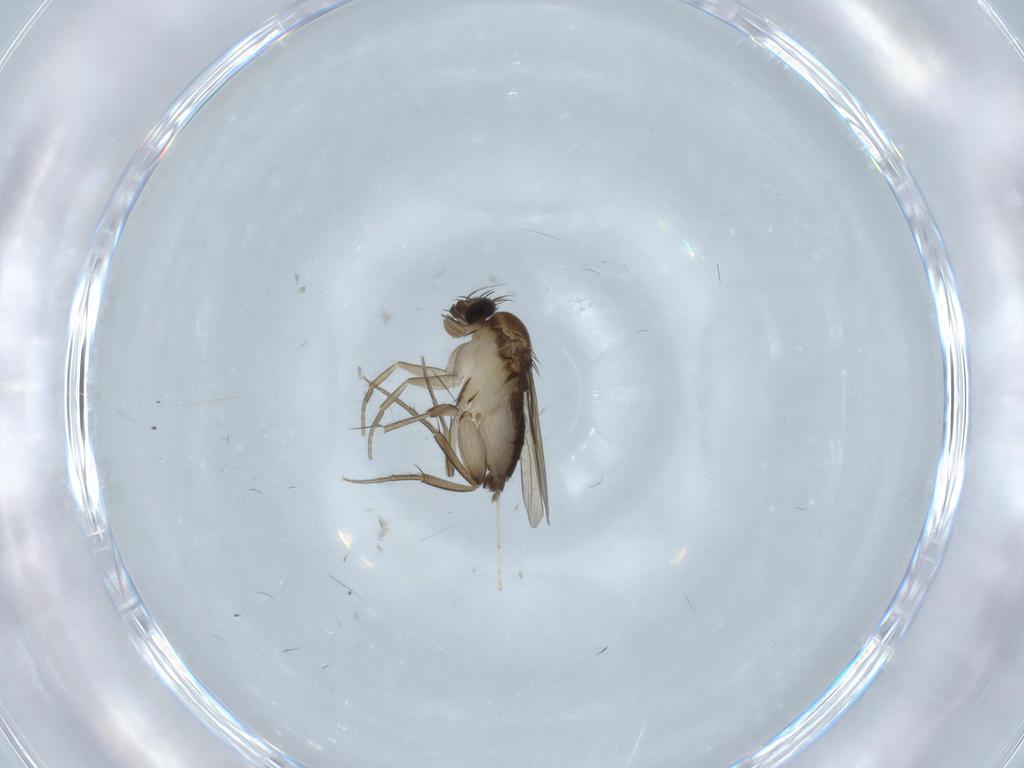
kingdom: Animalia
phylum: Arthropoda
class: Insecta
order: Diptera
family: Phoridae
